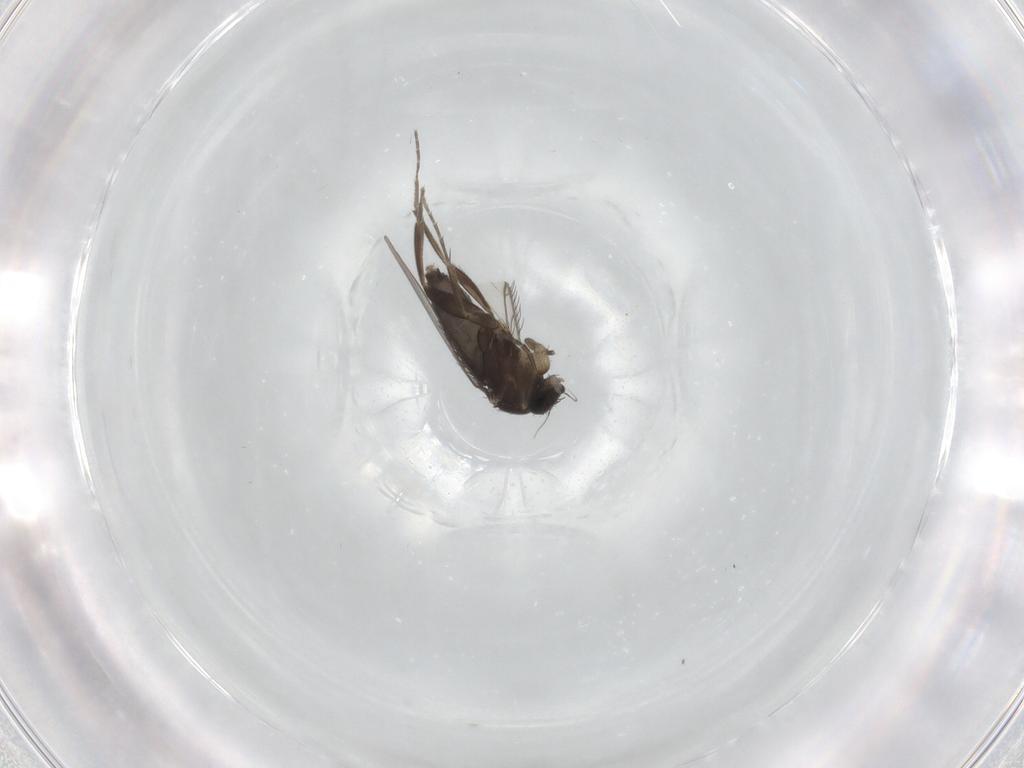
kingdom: Animalia
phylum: Arthropoda
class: Insecta
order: Diptera
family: Phoridae
